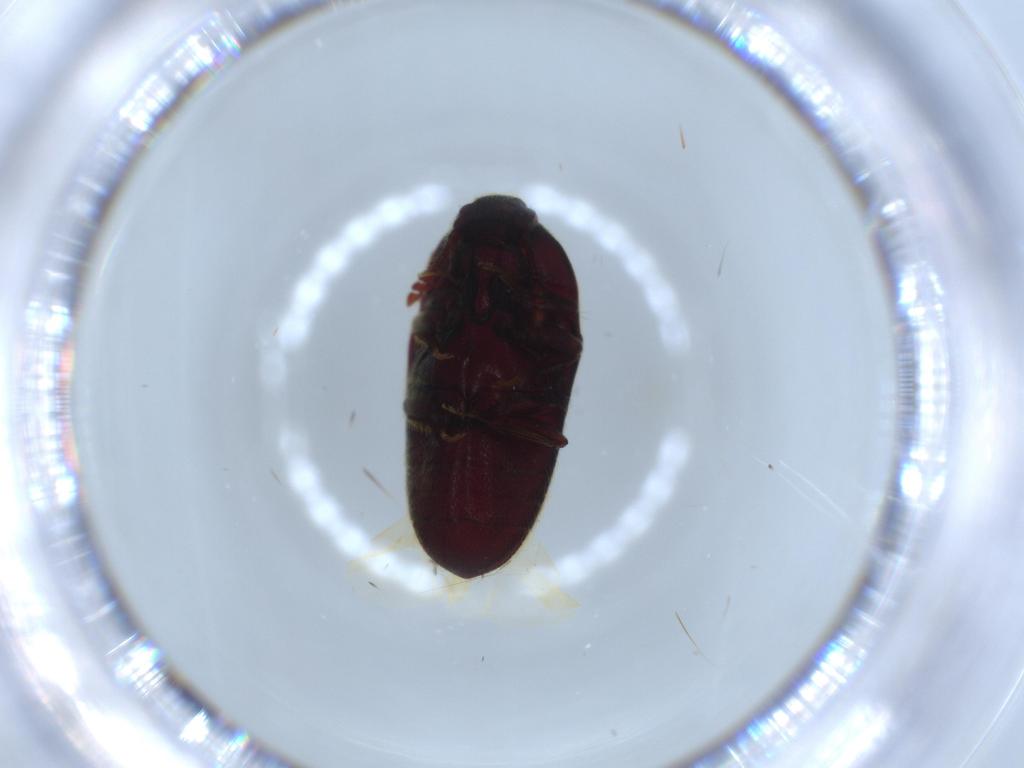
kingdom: Animalia
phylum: Arthropoda
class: Insecta
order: Coleoptera
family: Throscidae
